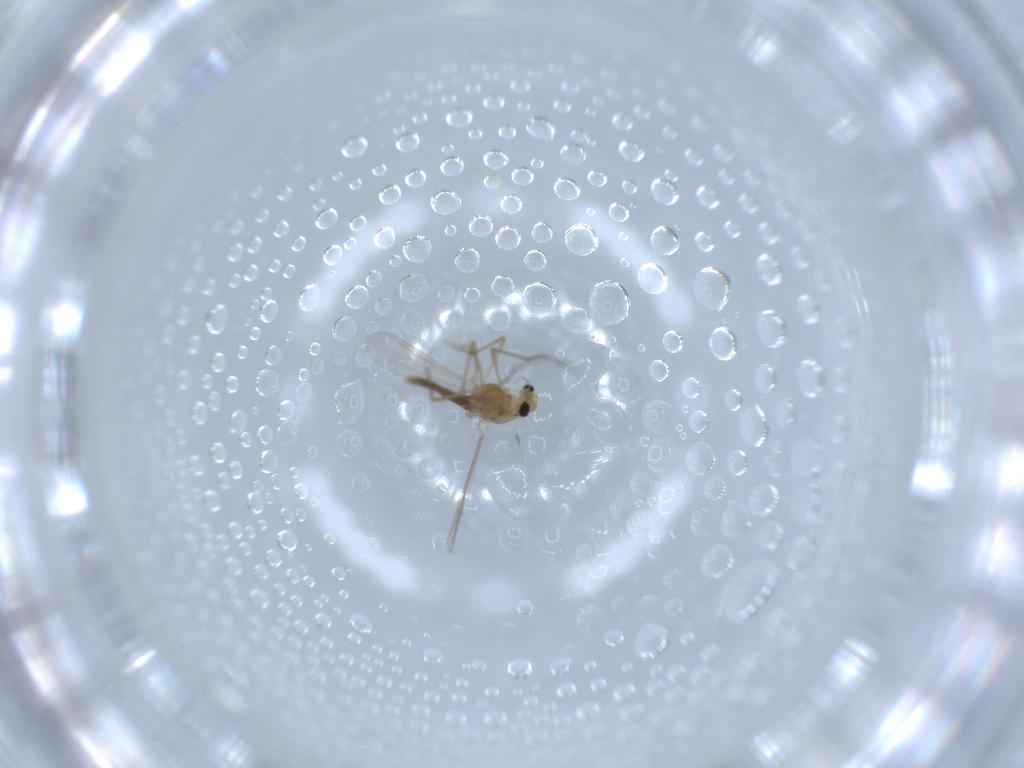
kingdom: Animalia
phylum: Arthropoda
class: Insecta
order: Diptera
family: Chironomidae
